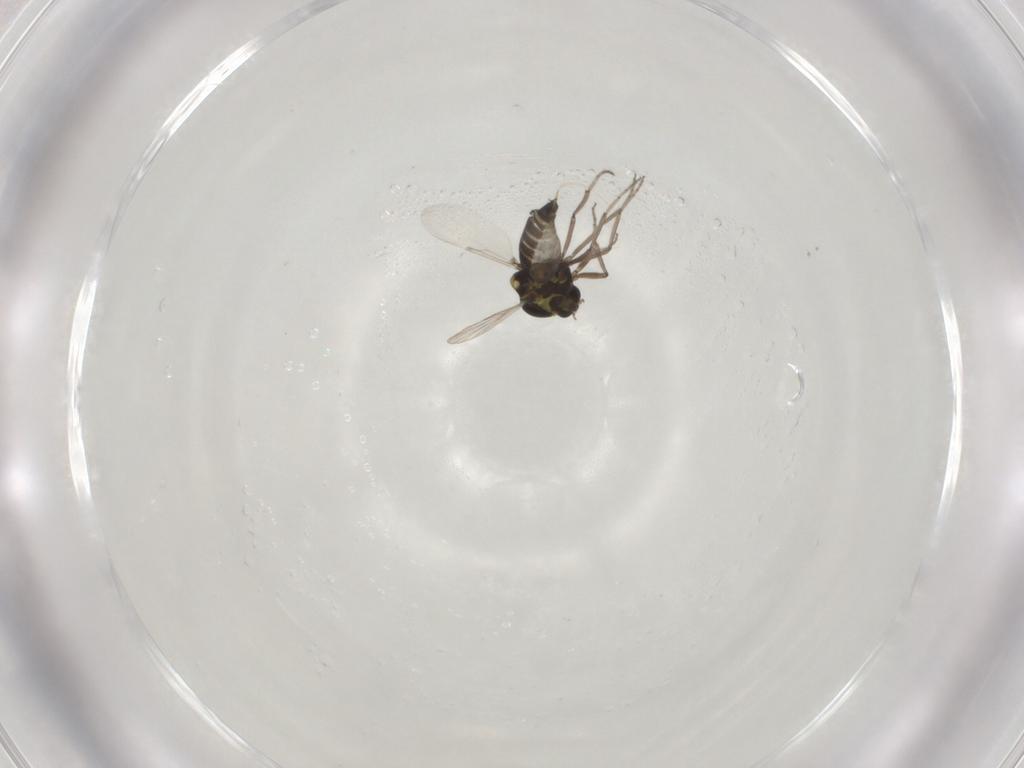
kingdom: Animalia
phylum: Arthropoda
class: Insecta
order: Diptera
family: Ceratopogonidae
